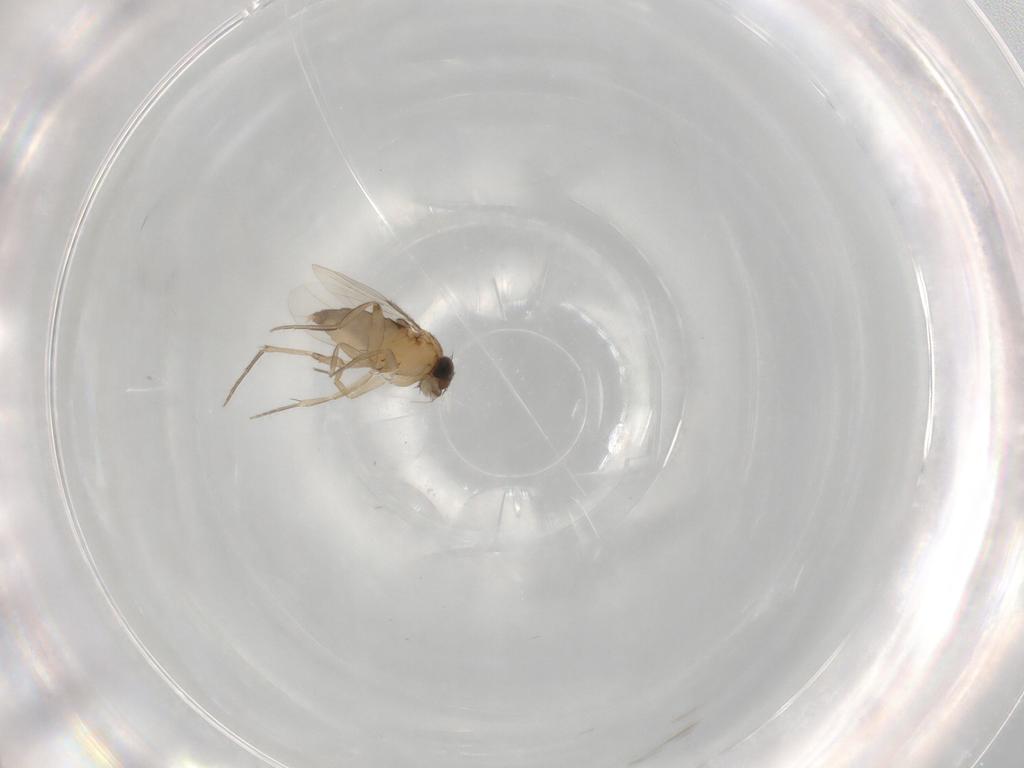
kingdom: Animalia
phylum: Arthropoda
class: Insecta
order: Diptera
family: Phoridae
